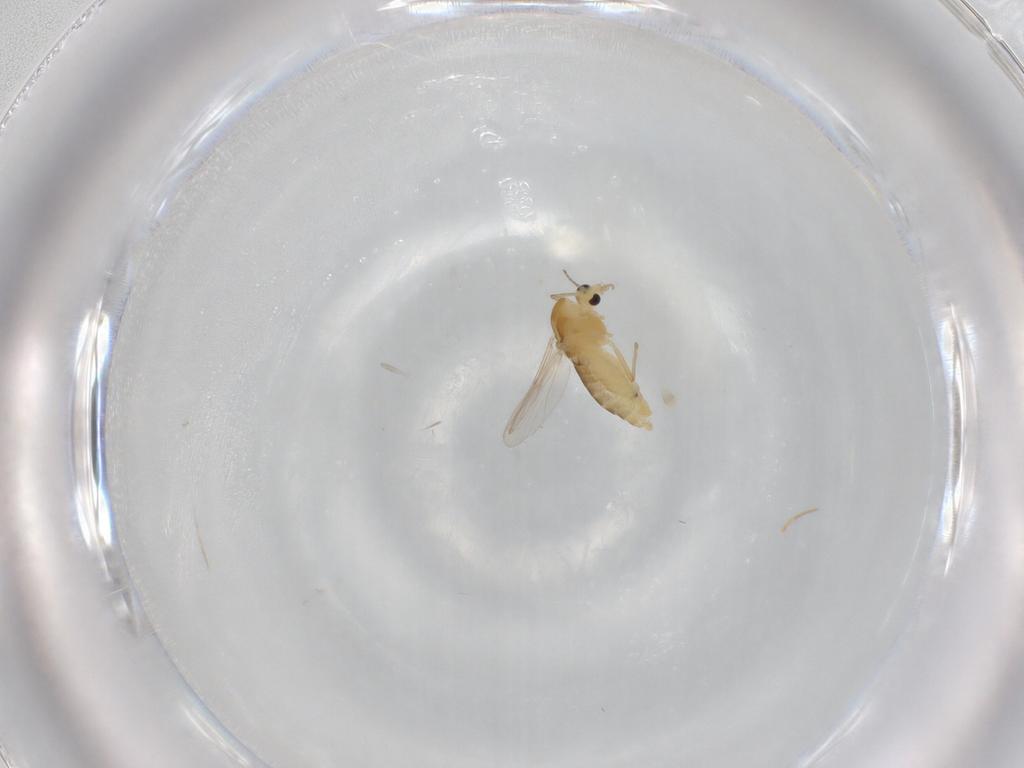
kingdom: Animalia
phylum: Arthropoda
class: Insecta
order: Diptera
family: Chironomidae
